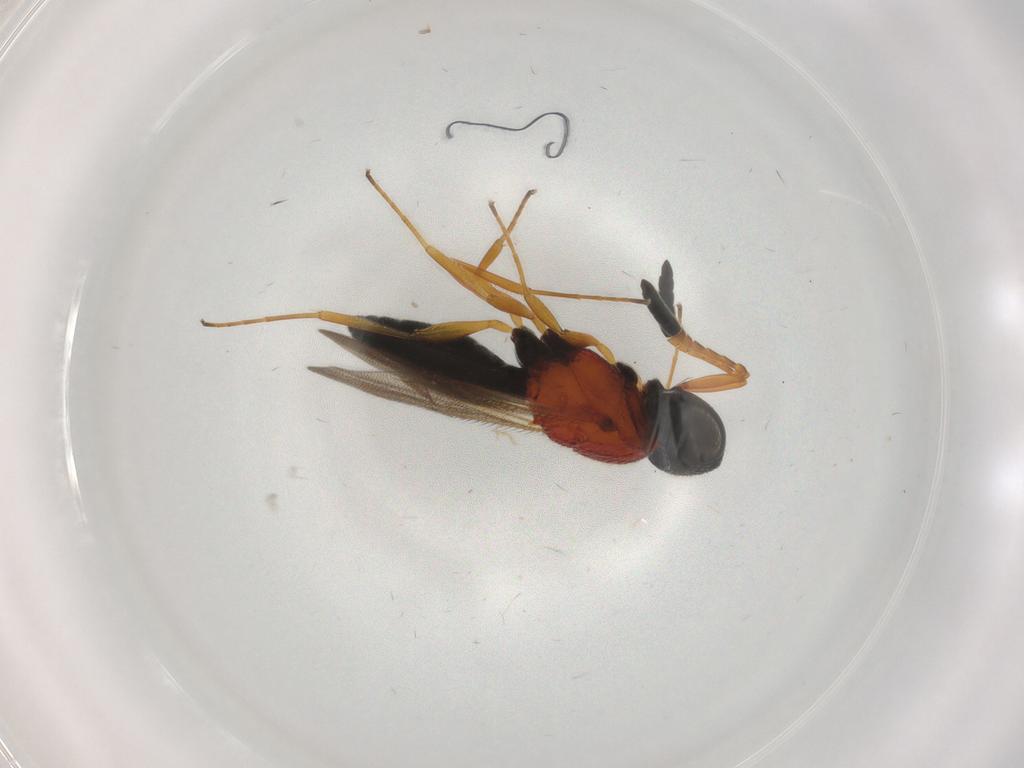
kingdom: Animalia
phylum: Arthropoda
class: Insecta
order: Hymenoptera
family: Scelionidae
